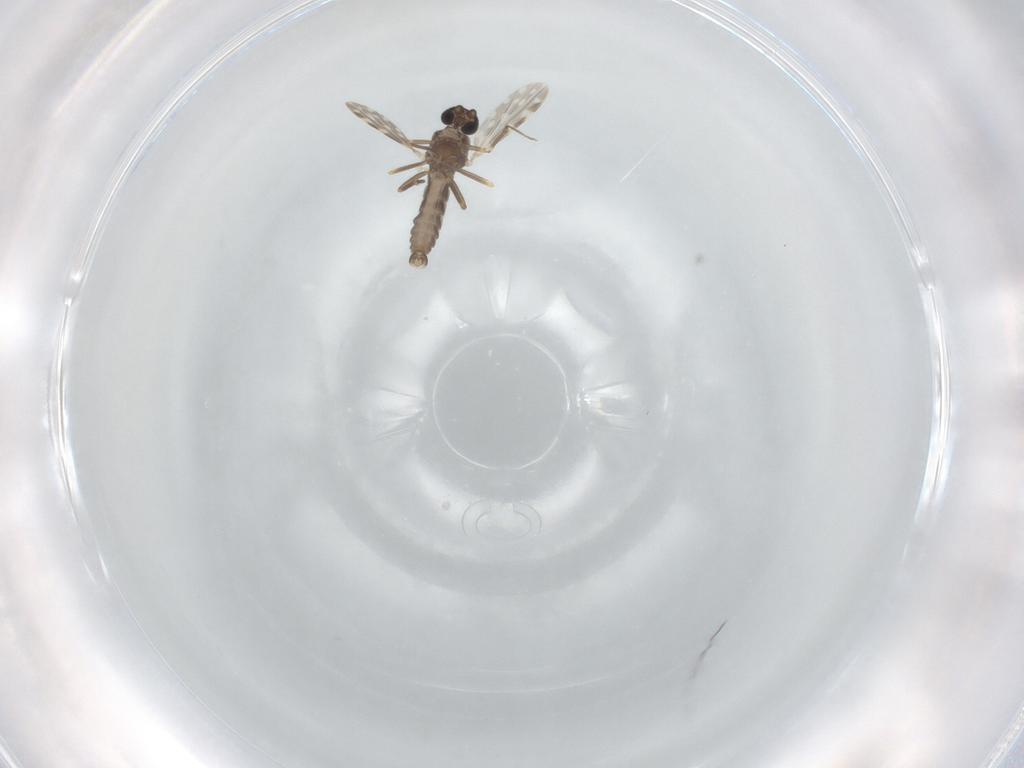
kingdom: Animalia
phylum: Arthropoda
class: Insecta
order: Diptera
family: Ceratopogonidae
